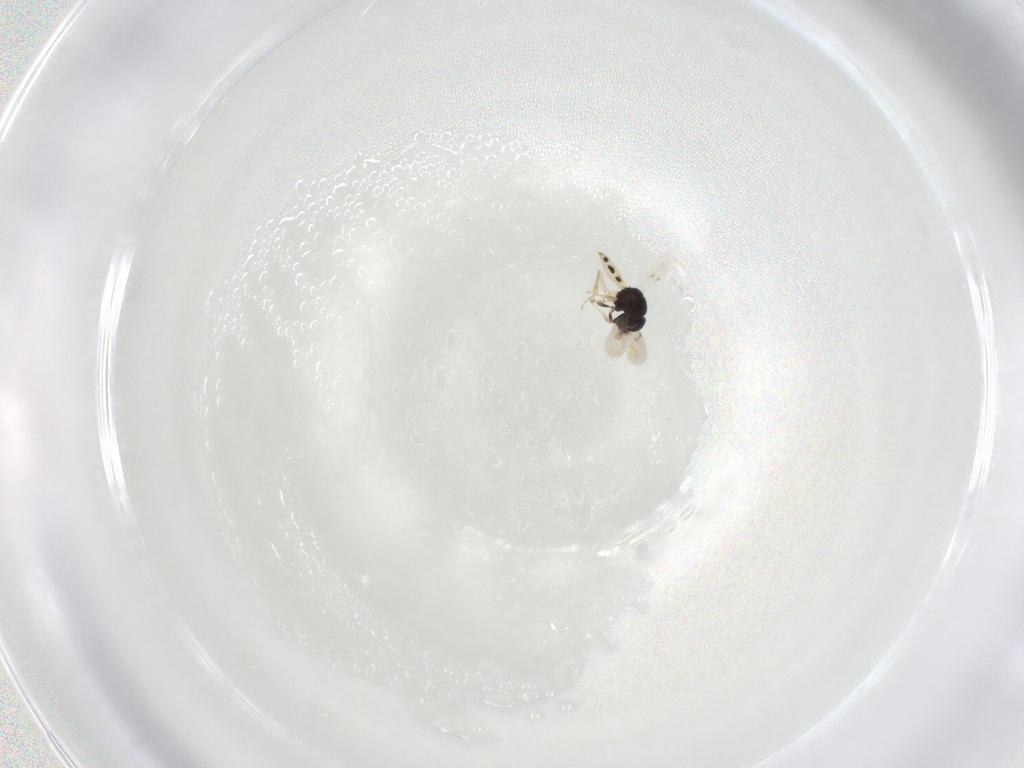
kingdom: Animalia
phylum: Arthropoda
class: Insecta
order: Hymenoptera
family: Scelionidae
